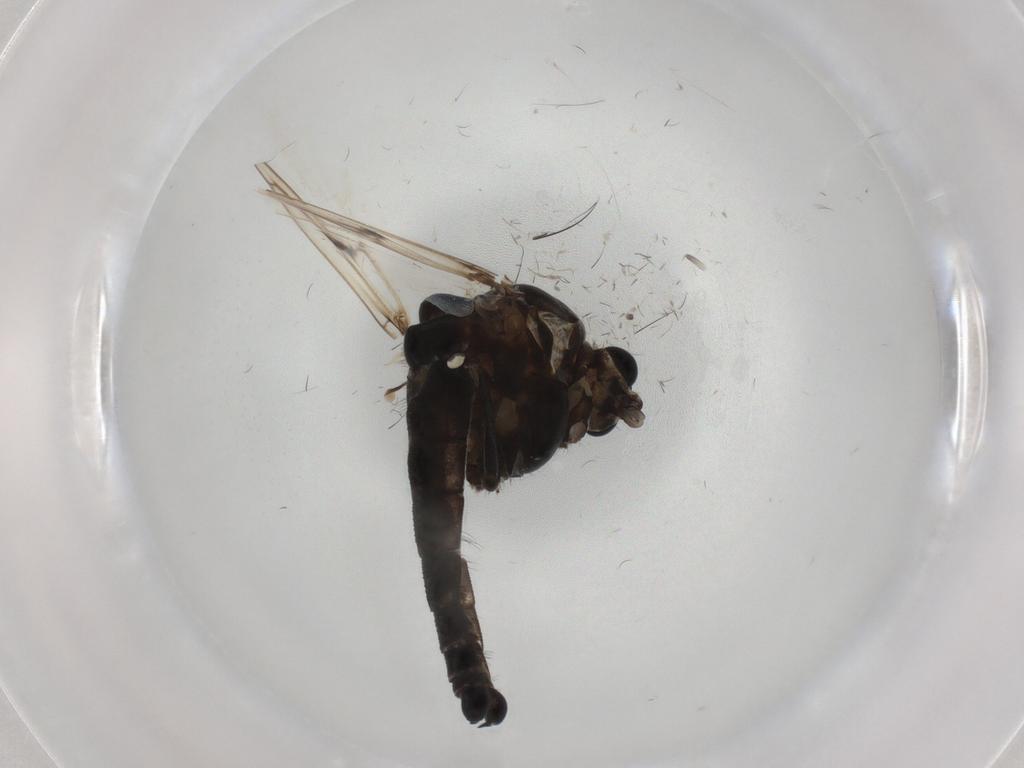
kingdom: Animalia
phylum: Arthropoda
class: Insecta
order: Diptera
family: Chironomidae
